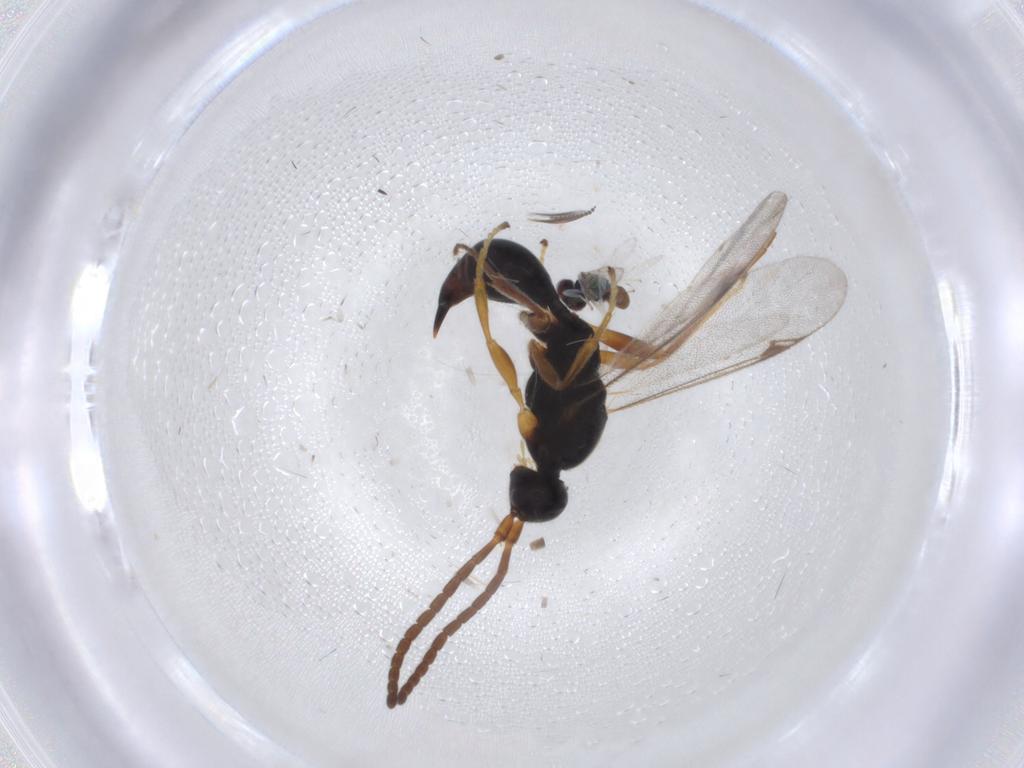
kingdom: Animalia
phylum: Arthropoda
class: Insecta
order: Hymenoptera
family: Eulophidae
